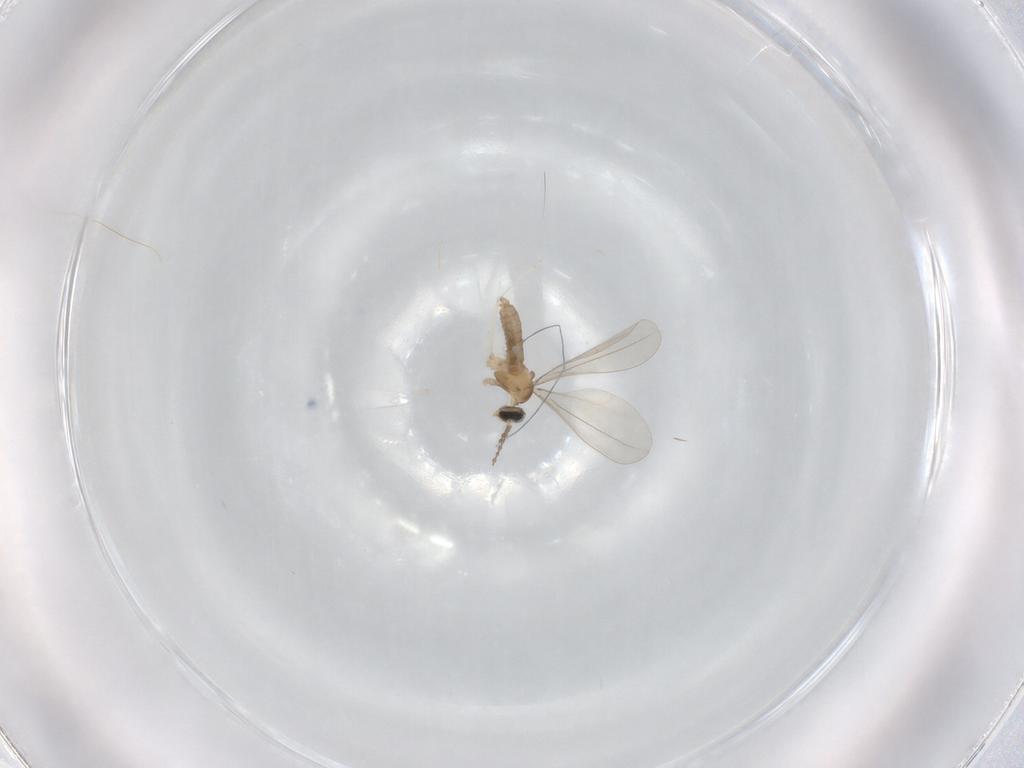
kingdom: Animalia
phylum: Arthropoda
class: Insecta
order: Diptera
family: Cecidomyiidae
